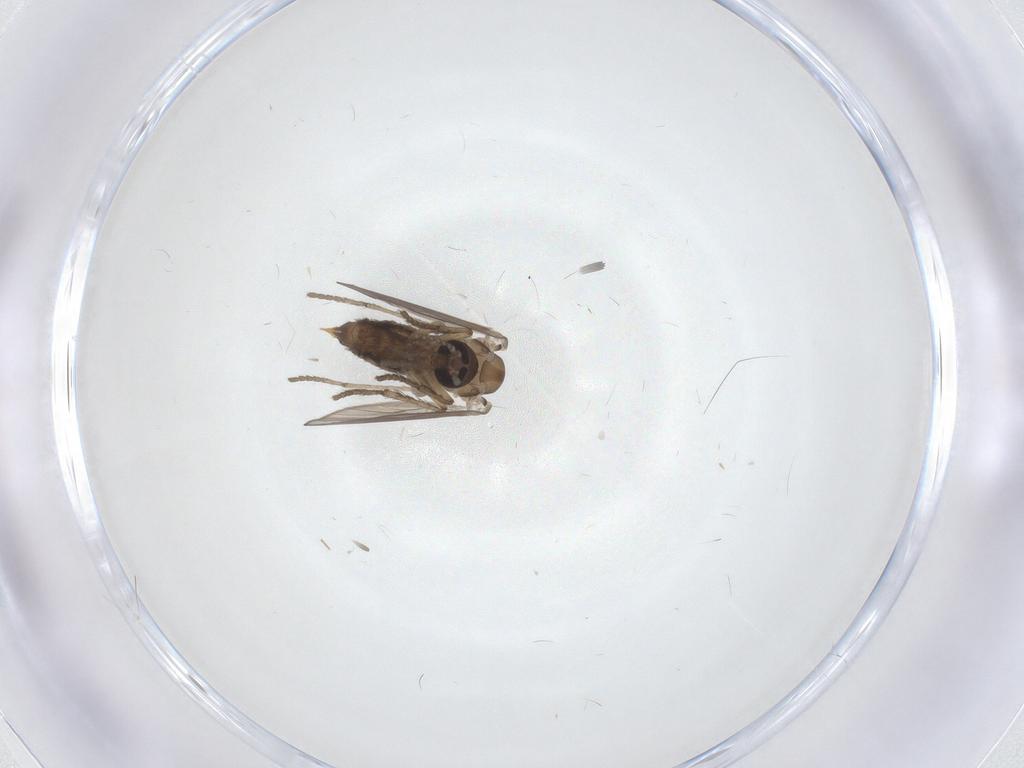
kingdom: Animalia
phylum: Arthropoda
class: Insecta
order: Diptera
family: Psychodidae
